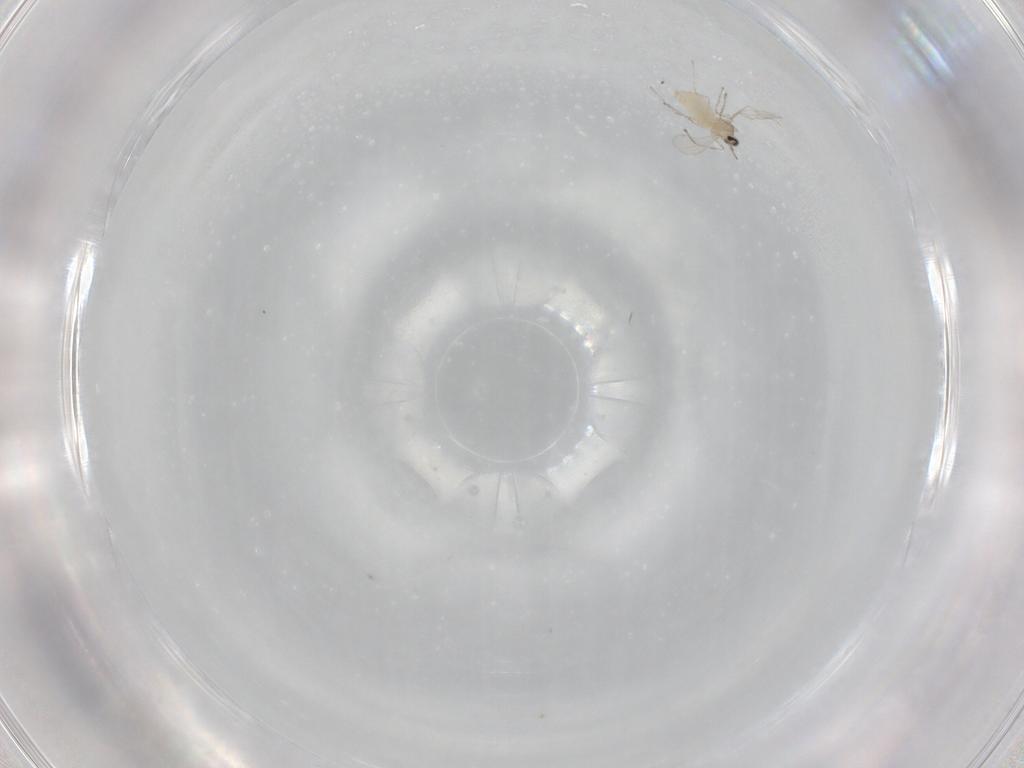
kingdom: Animalia
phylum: Arthropoda
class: Insecta
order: Diptera
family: Cecidomyiidae
